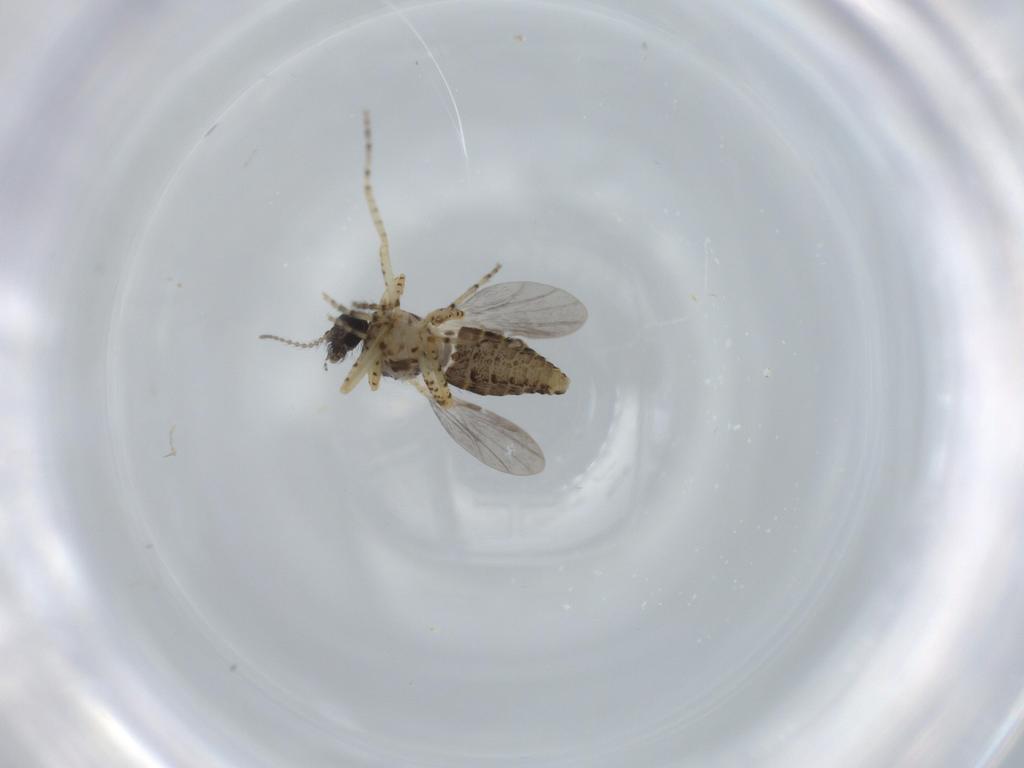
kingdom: Animalia
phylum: Arthropoda
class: Insecta
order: Diptera
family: Ceratopogonidae
